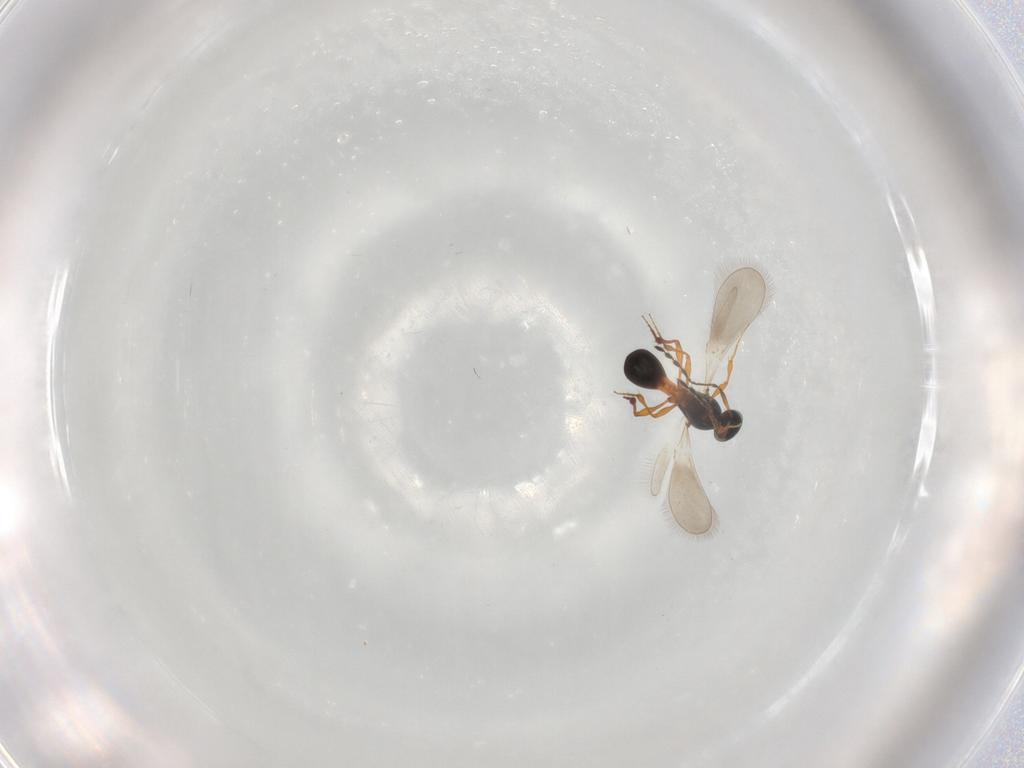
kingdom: Animalia
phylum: Arthropoda
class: Insecta
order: Hymenoptera
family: Platygastridae
